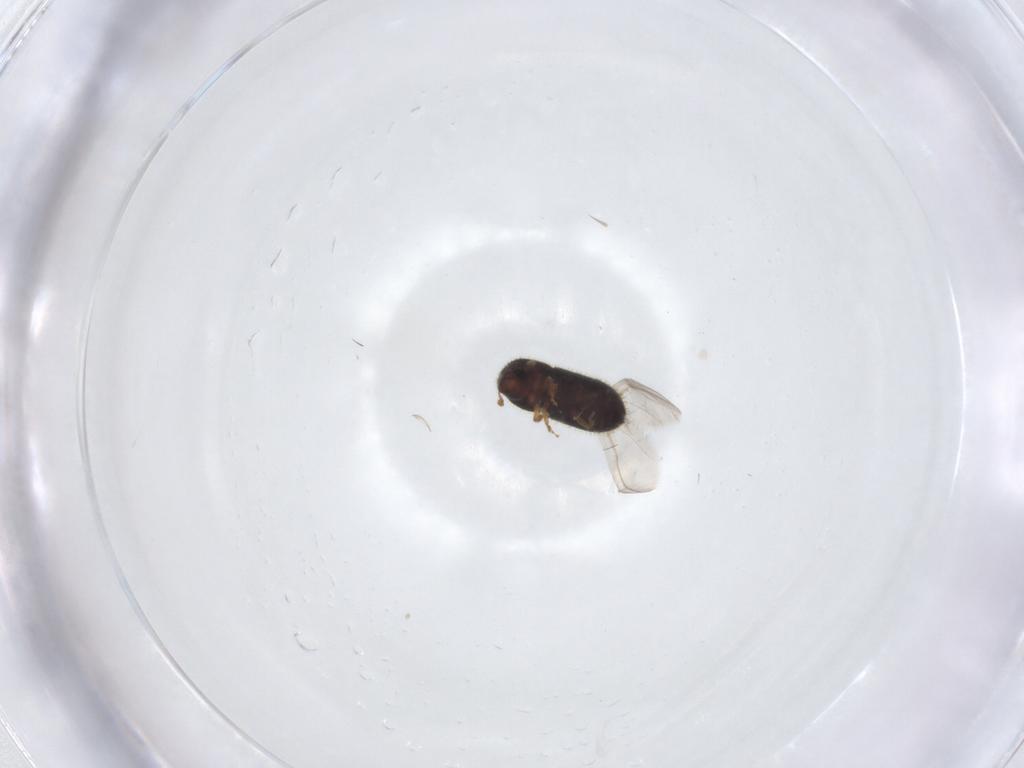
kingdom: Animalia
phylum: Arthropoda
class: Insecta
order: Coleoptera
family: Curculionidae
